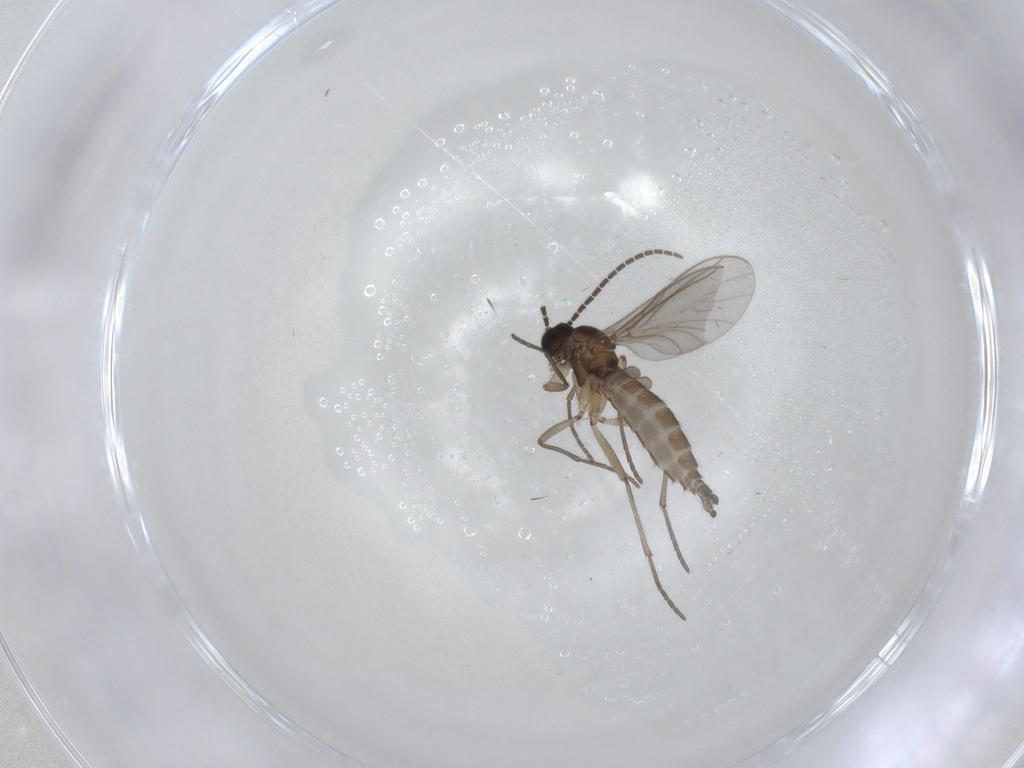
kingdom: Animalia
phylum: Arthropoda
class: Insecta
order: Diptera
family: Sciaridae
